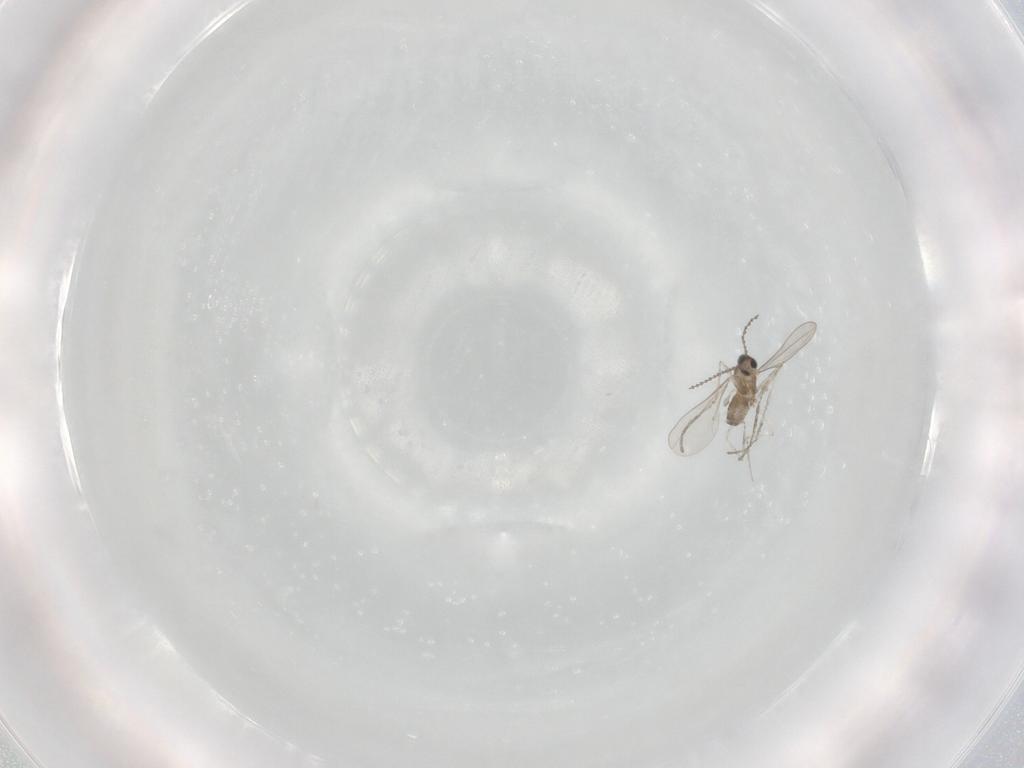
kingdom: Animalia
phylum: Arthropoda
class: Insecta
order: Diptera
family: Cecidomyiidae
